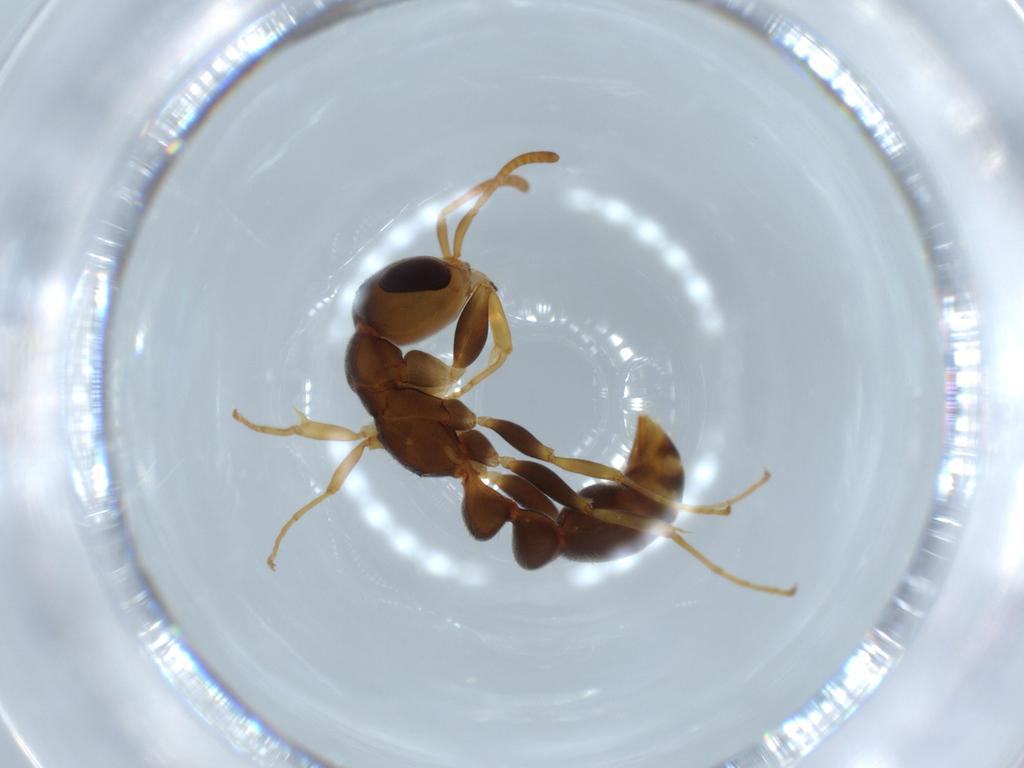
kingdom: Animalia
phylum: Arthropoda
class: Insecta
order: Hymenoptera
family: Formicidae
